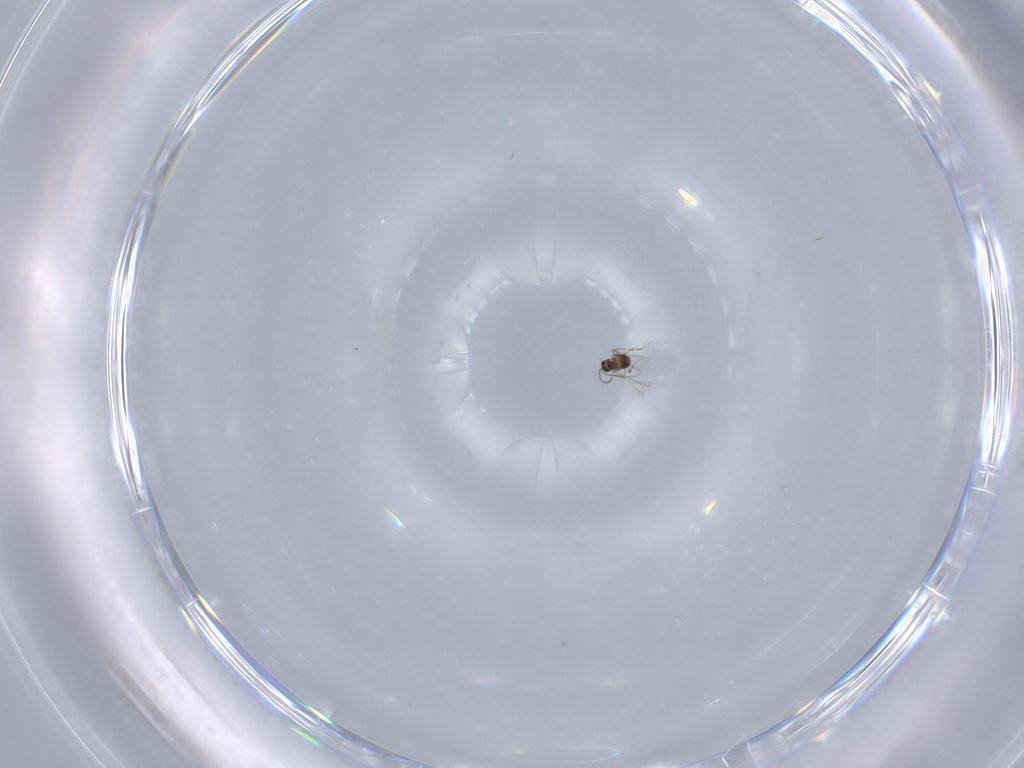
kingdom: Animalia
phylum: Arthropoda
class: Insecta
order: Hymenoptera
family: Mymaridae
